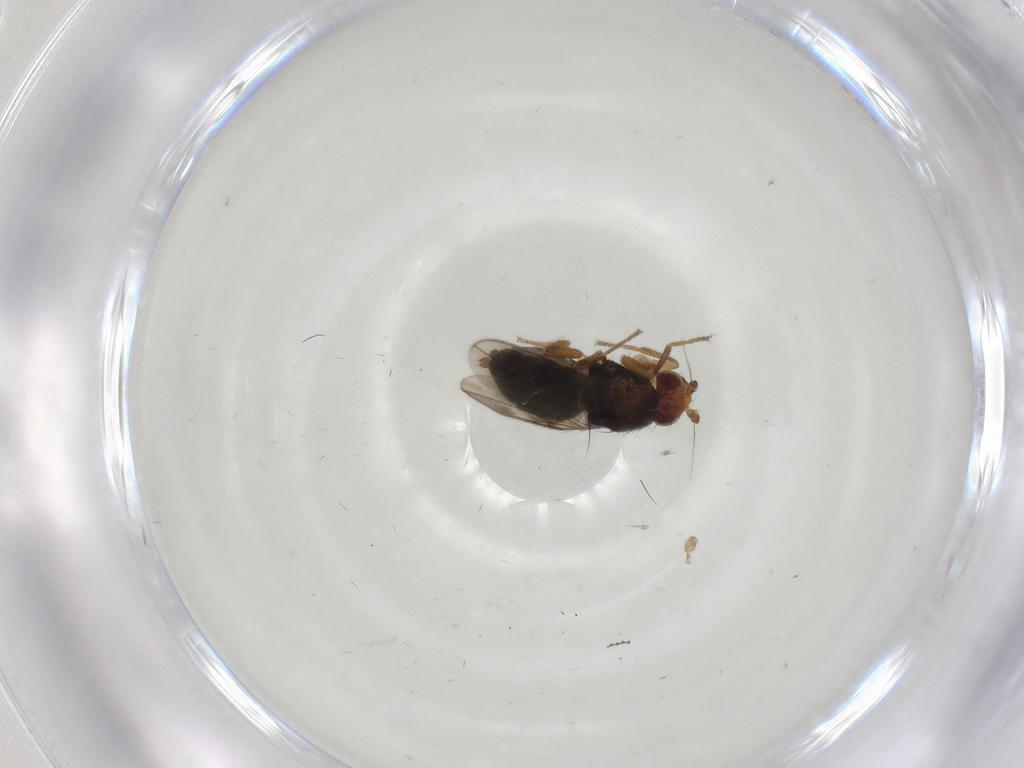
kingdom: Animalia
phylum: Arthropoda
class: Insecta
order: Diptera
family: Sphaeroceridae
